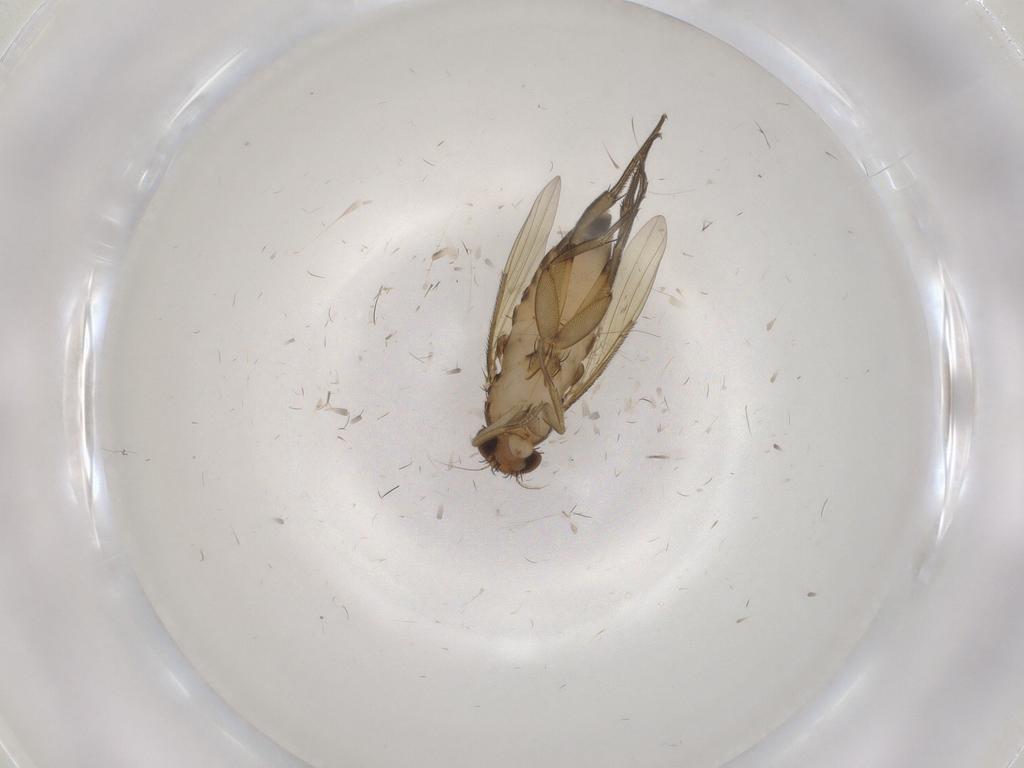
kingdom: Animalia
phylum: Arthropoda
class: Insecta
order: Diptera
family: Phoridae
